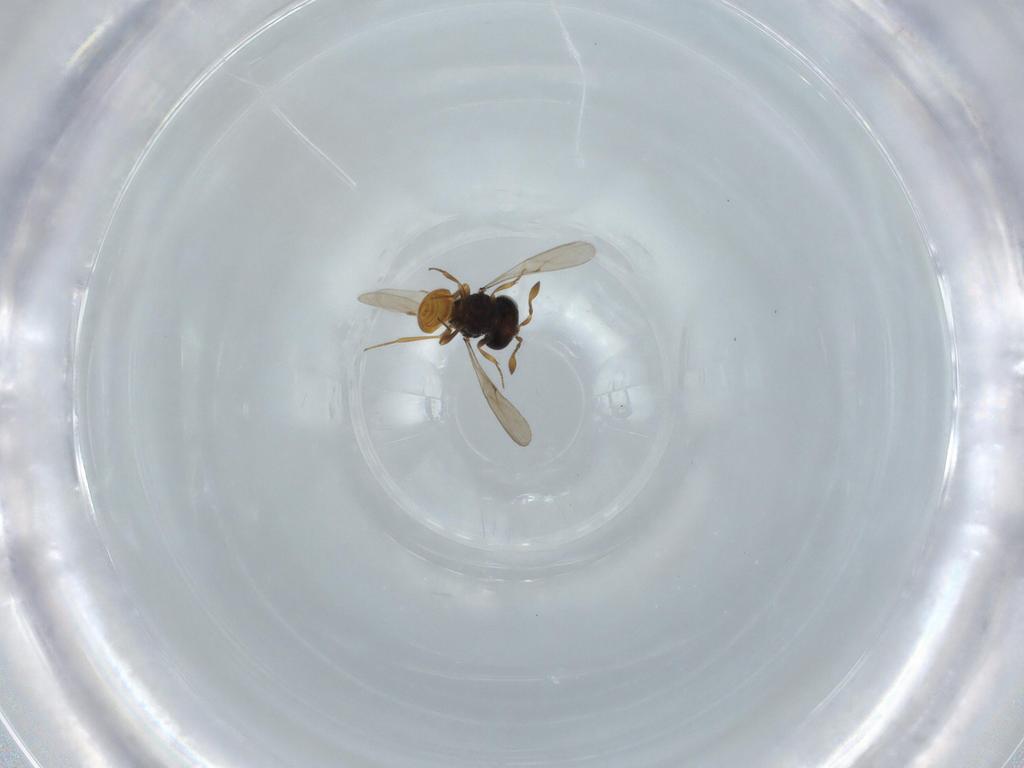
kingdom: Animalia
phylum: Arthropoda
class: Insecta
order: Hymenoptera
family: Scelionidae
